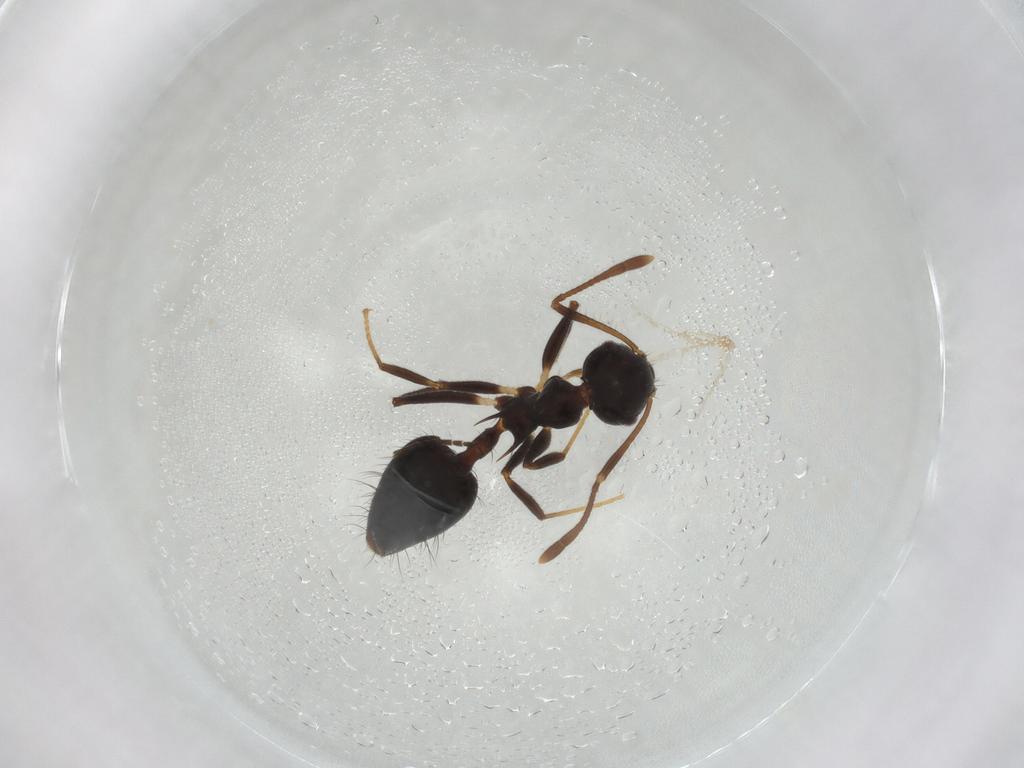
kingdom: Animalia
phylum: Arthropoda
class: Insecta
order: Hymenoptera
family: Formicidae
